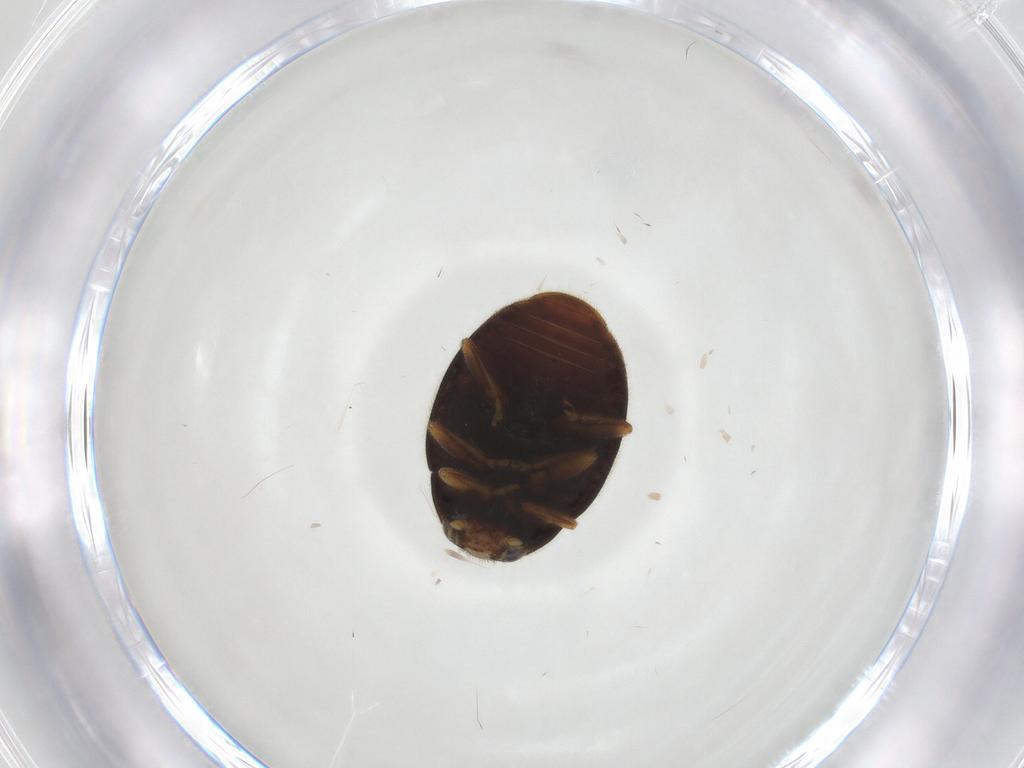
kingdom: Animalia
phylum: Arthropoda
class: Insecta
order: Coleoptera
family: Coccinellidae
